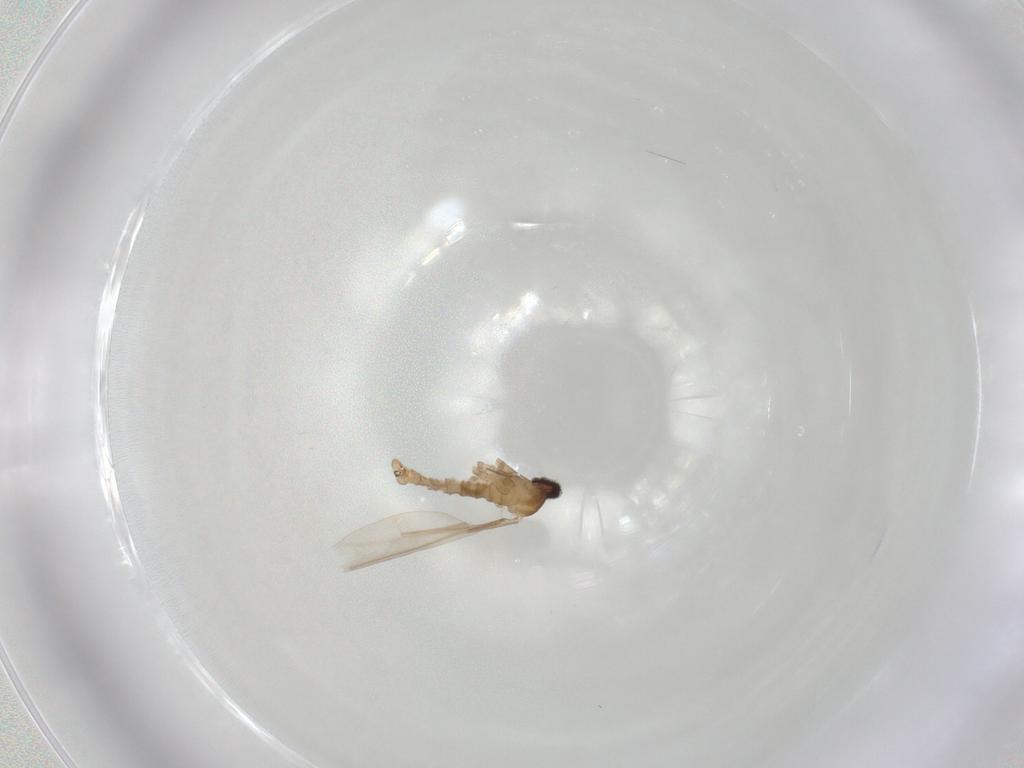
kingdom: Animalia
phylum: Arthropoda
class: Insecta
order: Diptera
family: Cecidomyiidae
